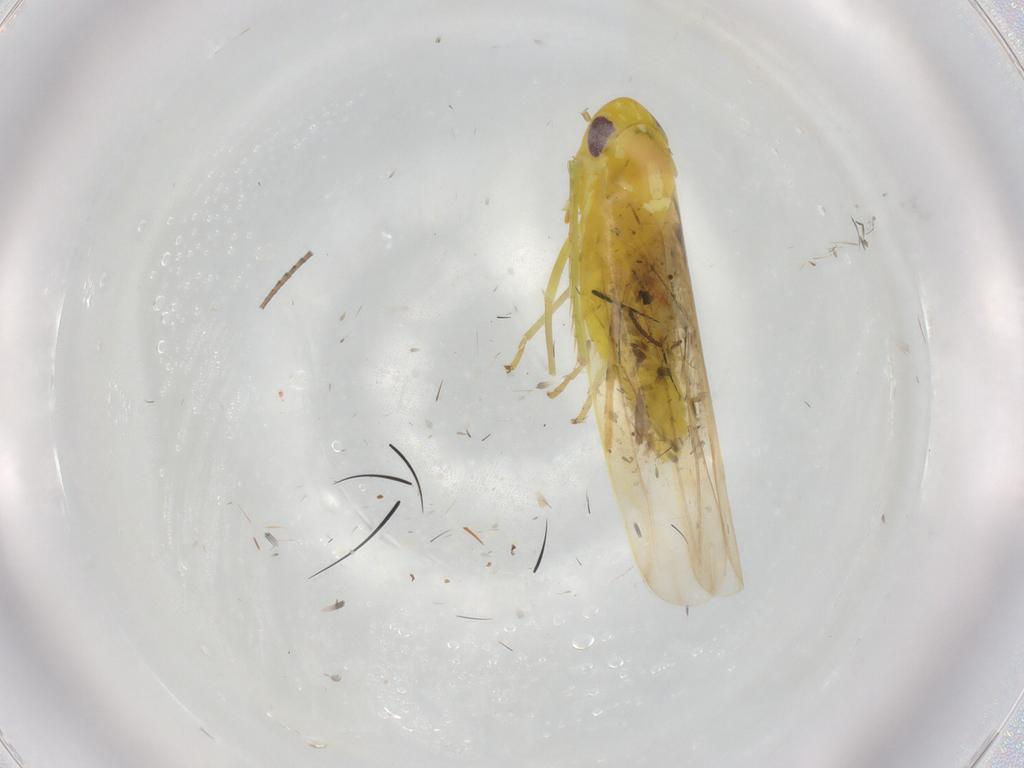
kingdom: Animalia
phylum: Arthropoda
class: Insecta
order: Hemiptera
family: Cicadellidae
